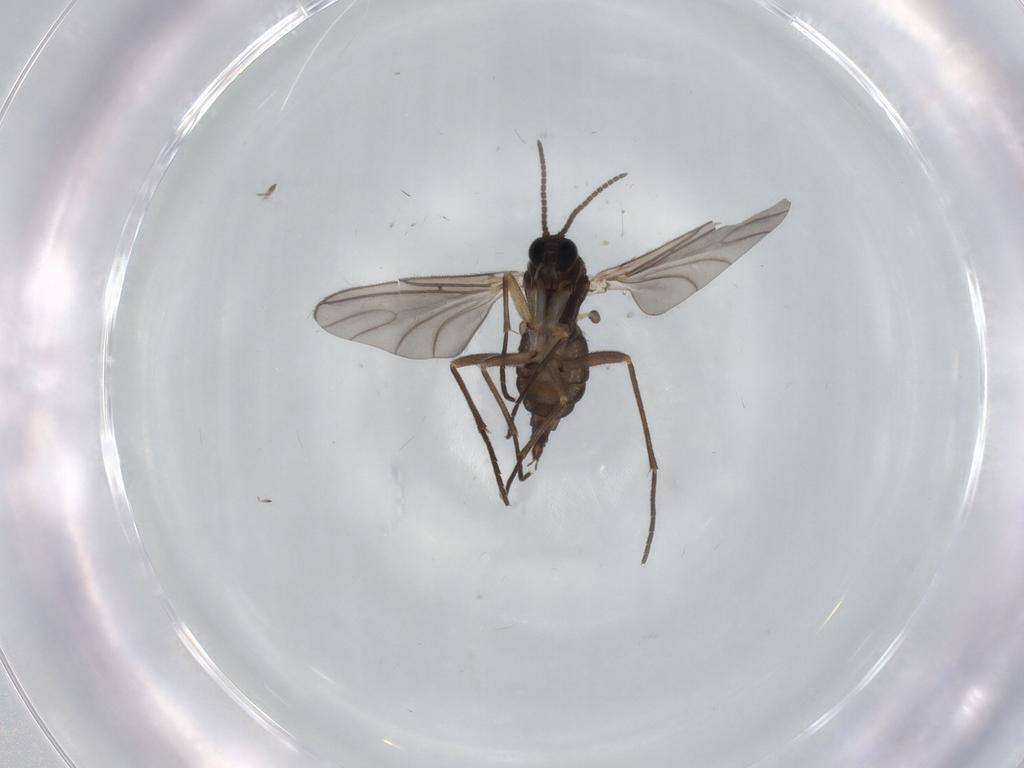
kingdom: Animalia
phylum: Arthropoda
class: Insecta
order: Diptera
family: Sciaridae
